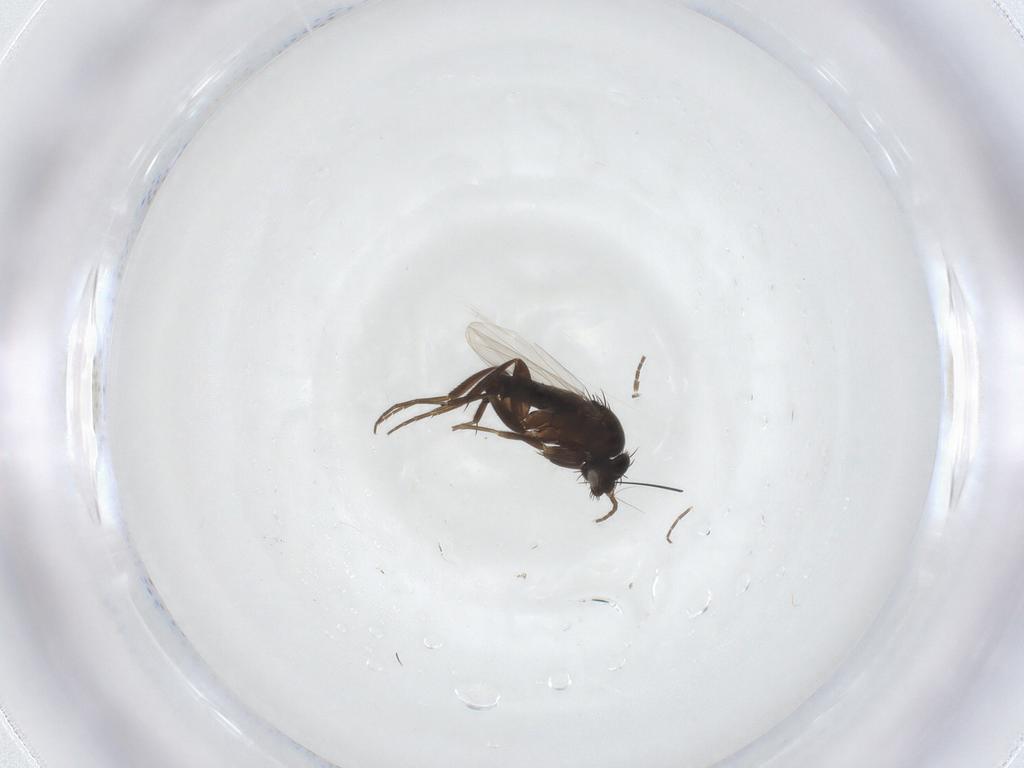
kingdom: Animalia
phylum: Arthropoda
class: Insecta
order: Diptera
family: Phoridae
